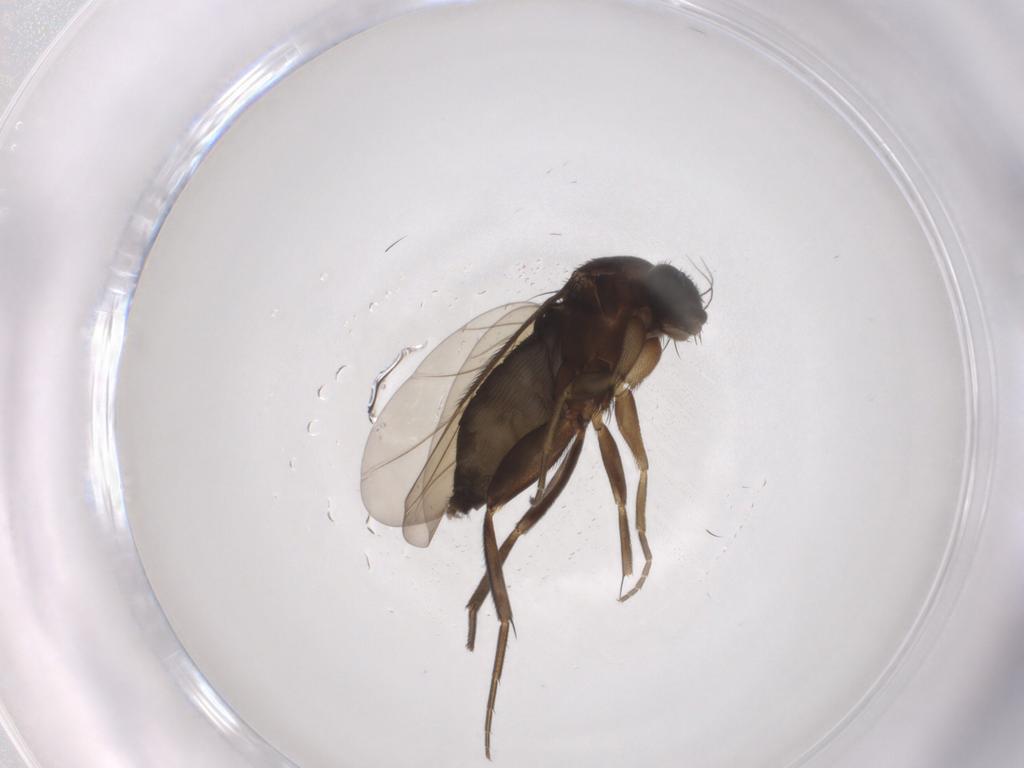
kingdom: Animalia
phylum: Arthropoda
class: Insecta
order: Diptera
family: Phoridae
